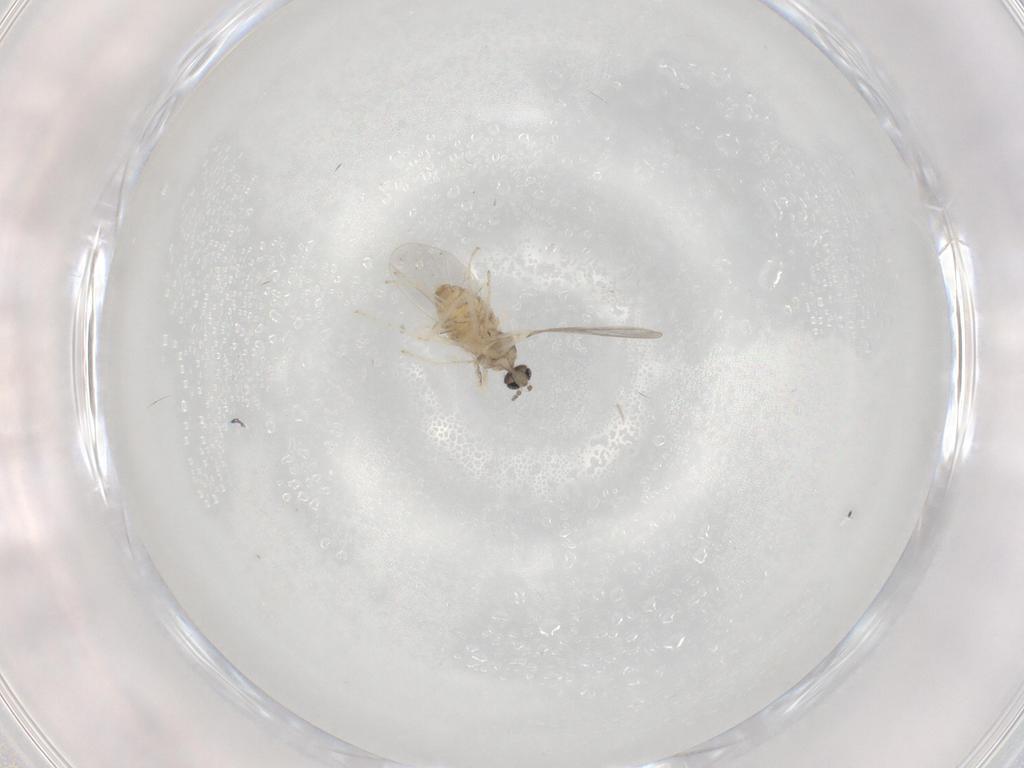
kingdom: Animalia
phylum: Arthropoda
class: Insecta
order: Diptera
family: Cecidomyiidae
